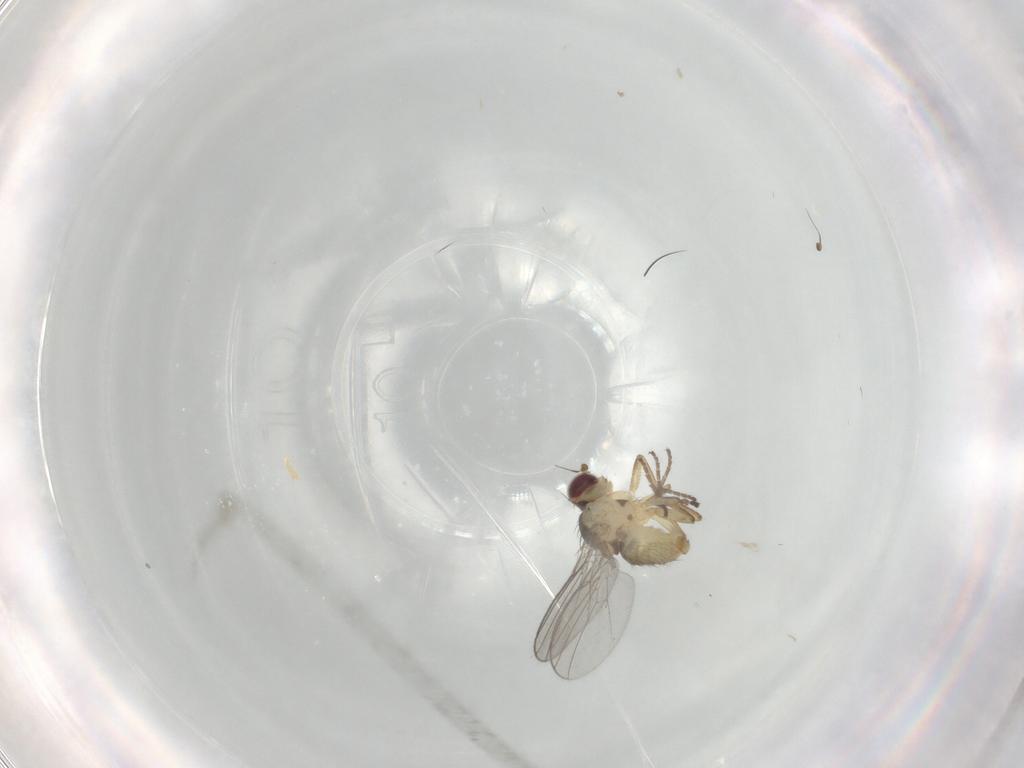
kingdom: Animalia
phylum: Arthropoda
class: Insecta
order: Diptera
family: Agromyzidae
